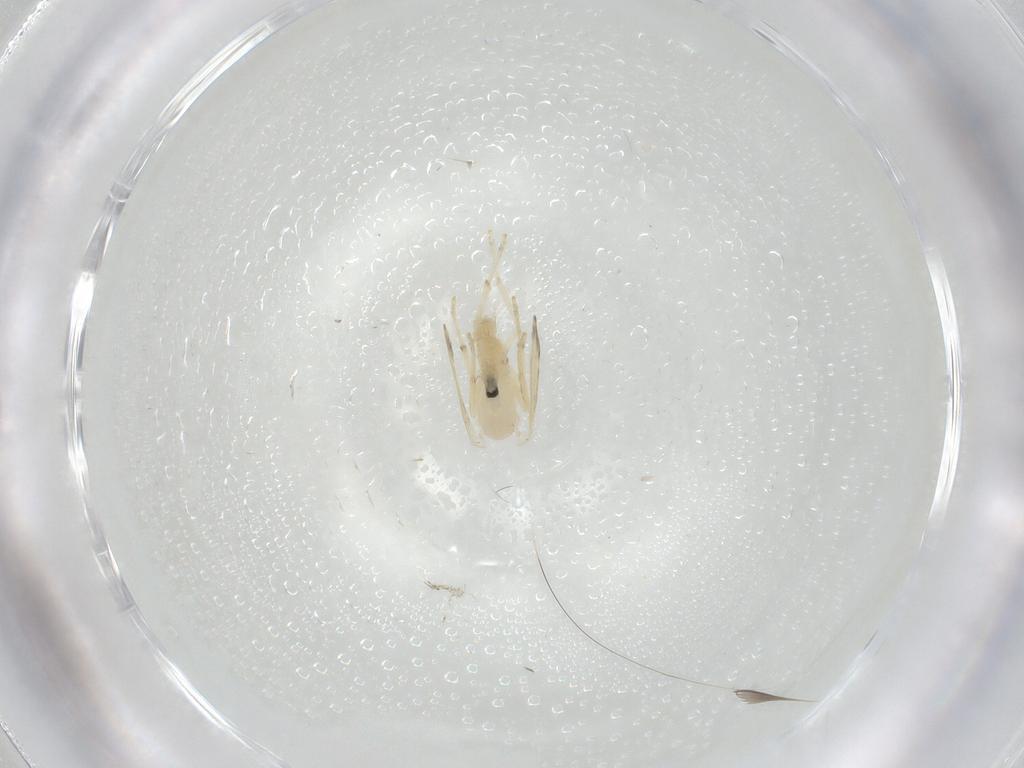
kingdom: Animalia
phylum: Arthropoda
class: Insecta
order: Diptera
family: Psychodidae
